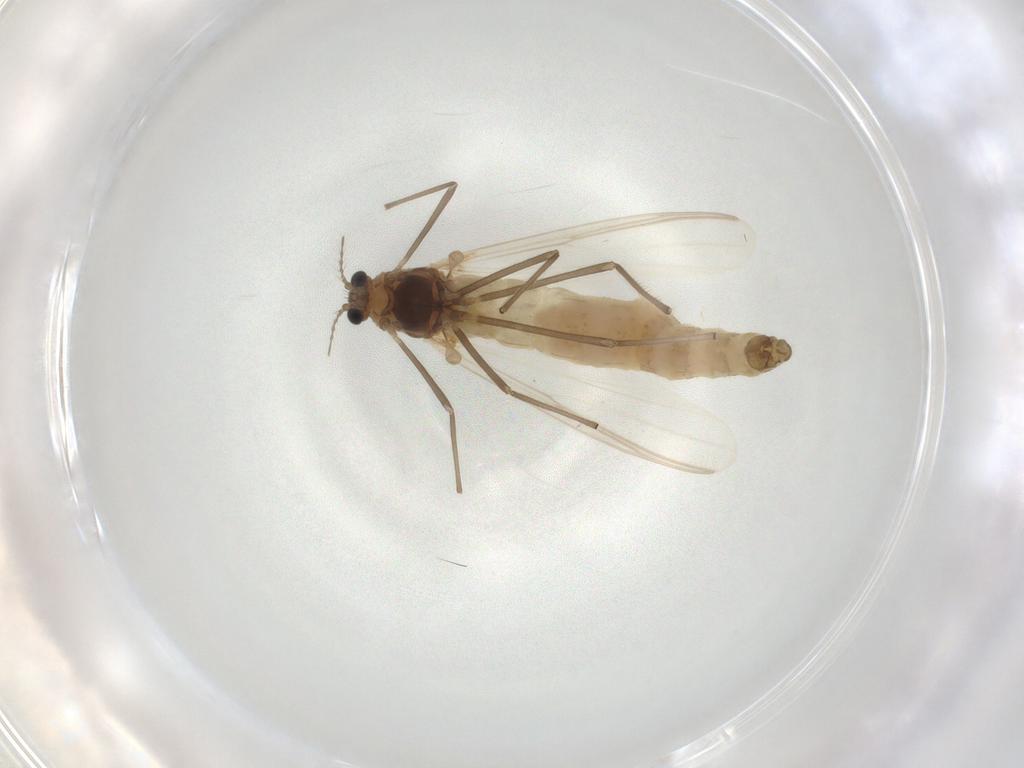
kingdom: Animalia
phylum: Arthropoda
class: Insecta
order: Diptera
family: Chironomidae
